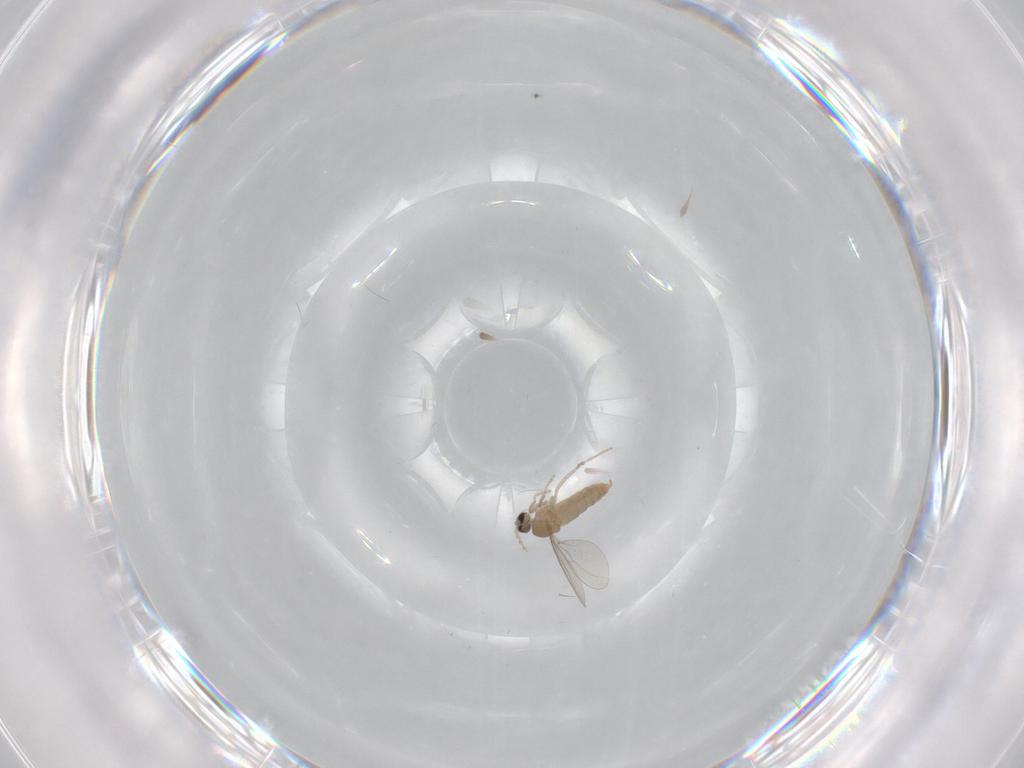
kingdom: Animalia
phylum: Arthropoda
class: Insecta
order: Diptera
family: Cecidomyiidae
